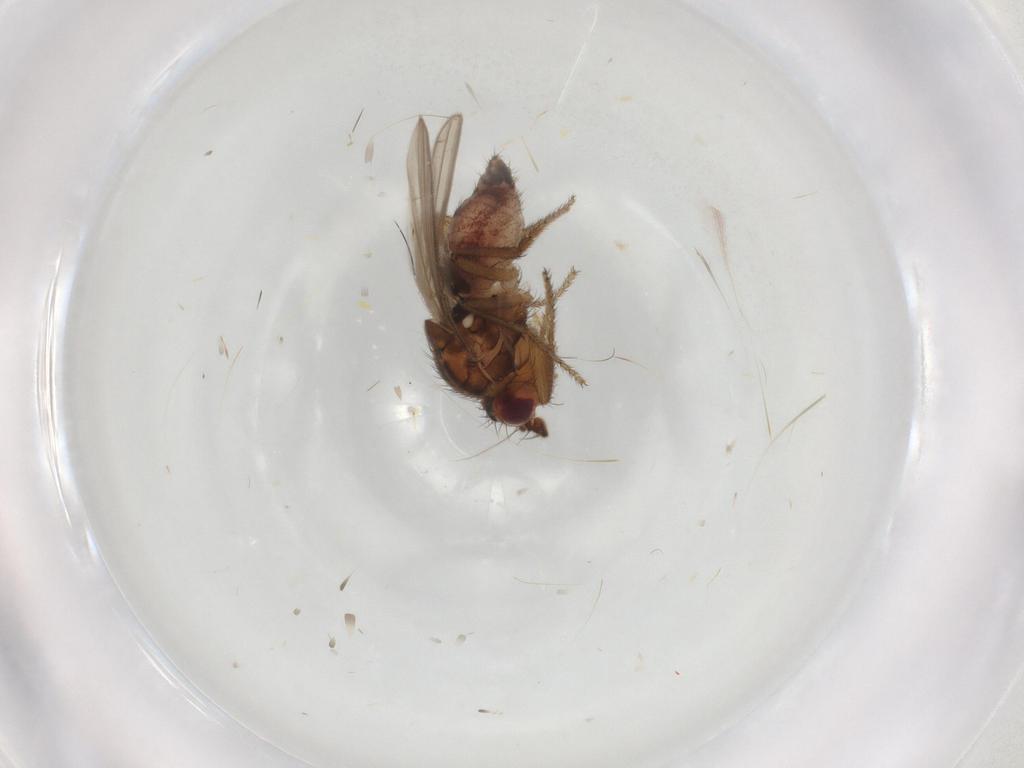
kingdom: Animalia
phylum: Arthropoda
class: Insecta
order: Diptera
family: Sphaeroceridae
